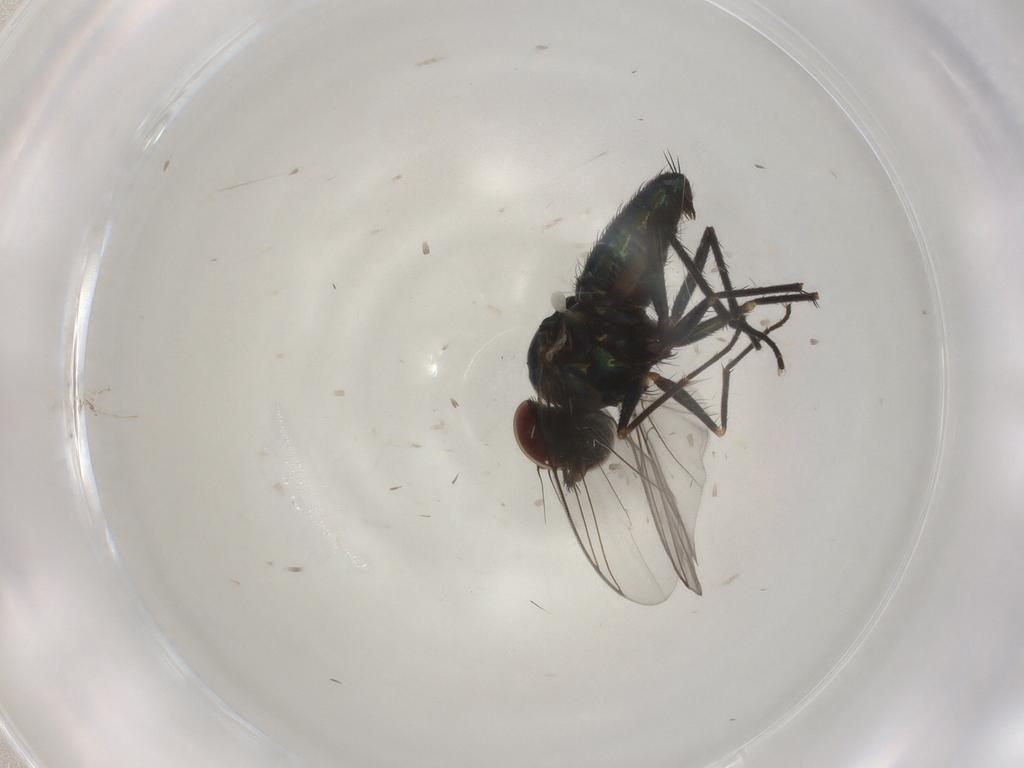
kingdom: Animalia
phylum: Arthropoda
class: Insecta
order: Diptera
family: Dolichopodidae
